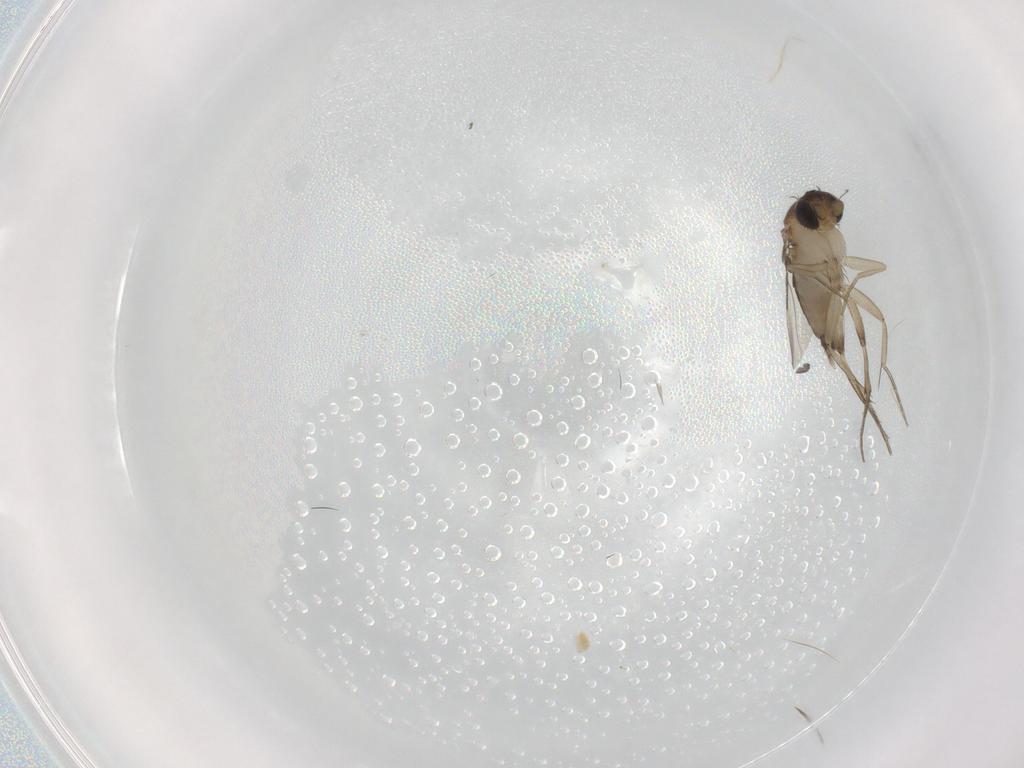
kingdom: Animalia
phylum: Arthropoda
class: Insecta
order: Diptera
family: Phoridae
